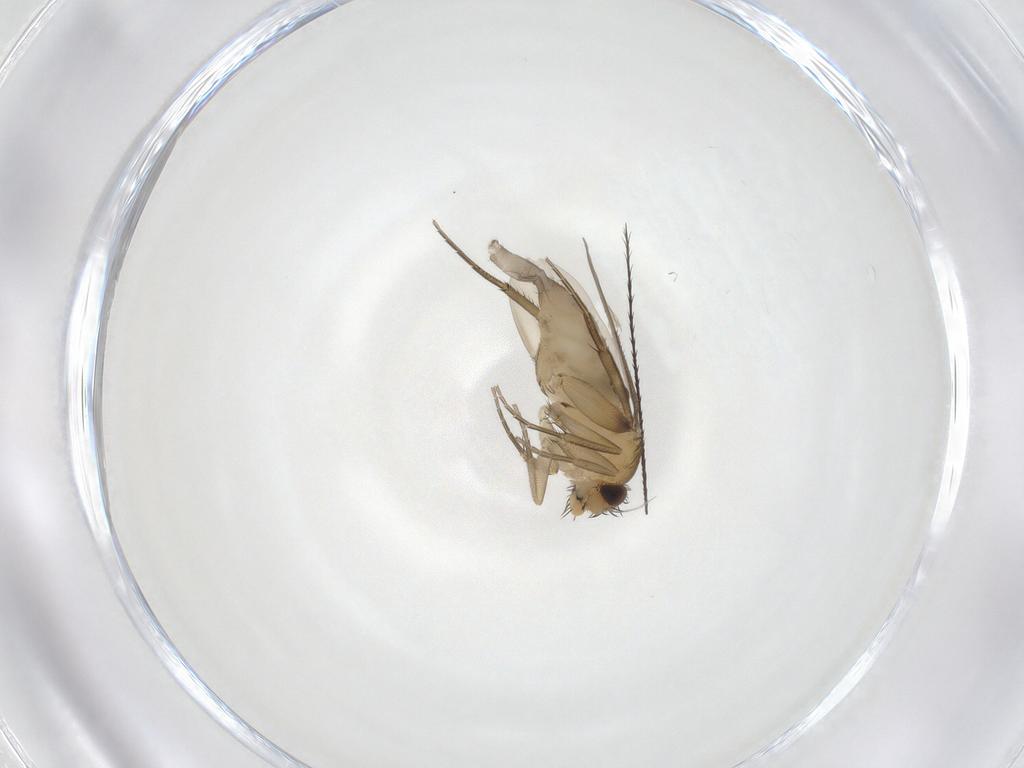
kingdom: Animalia
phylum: Arthropoda
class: Insecta
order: Diptera
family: Phoridae
